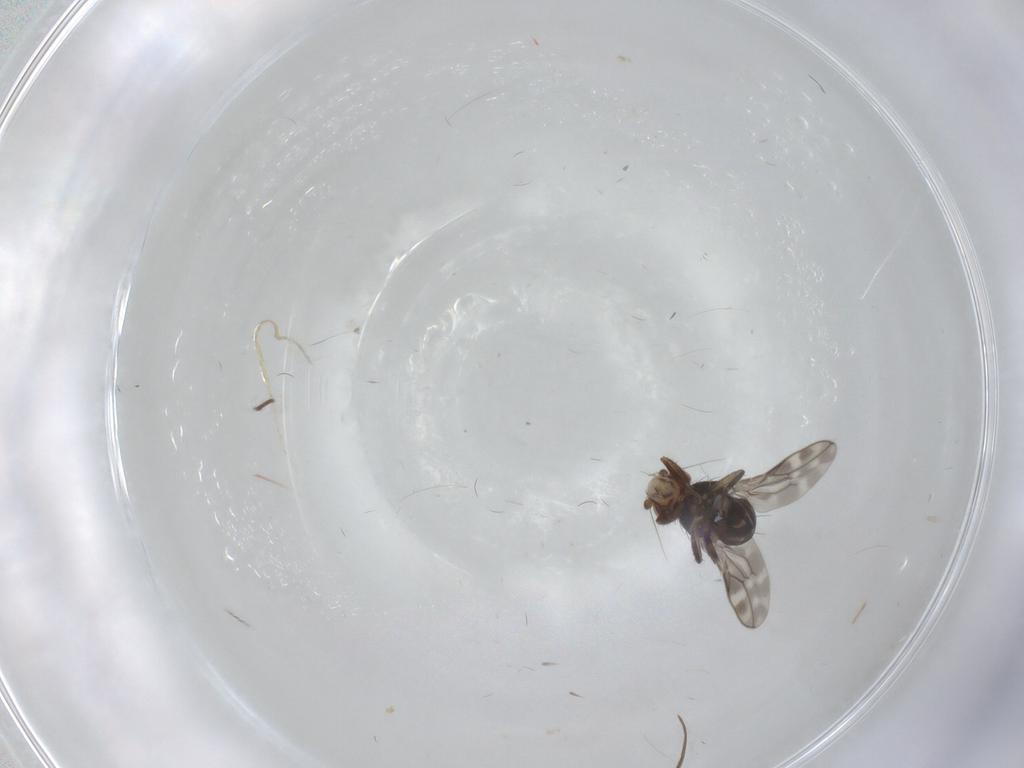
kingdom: Animalia
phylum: Arthropoda
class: Insecta
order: Diptera
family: Sphaeroceridae
